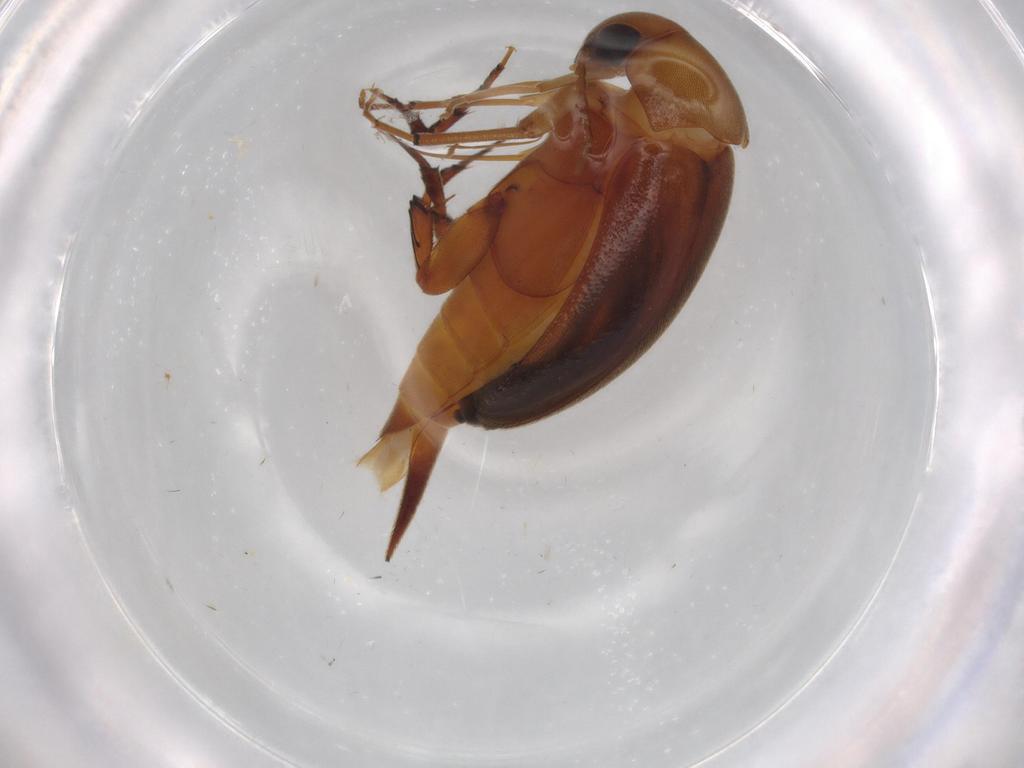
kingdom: Animalia
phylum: Arthropoda
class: Insecta
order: Coleoptera
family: Mordellidae
